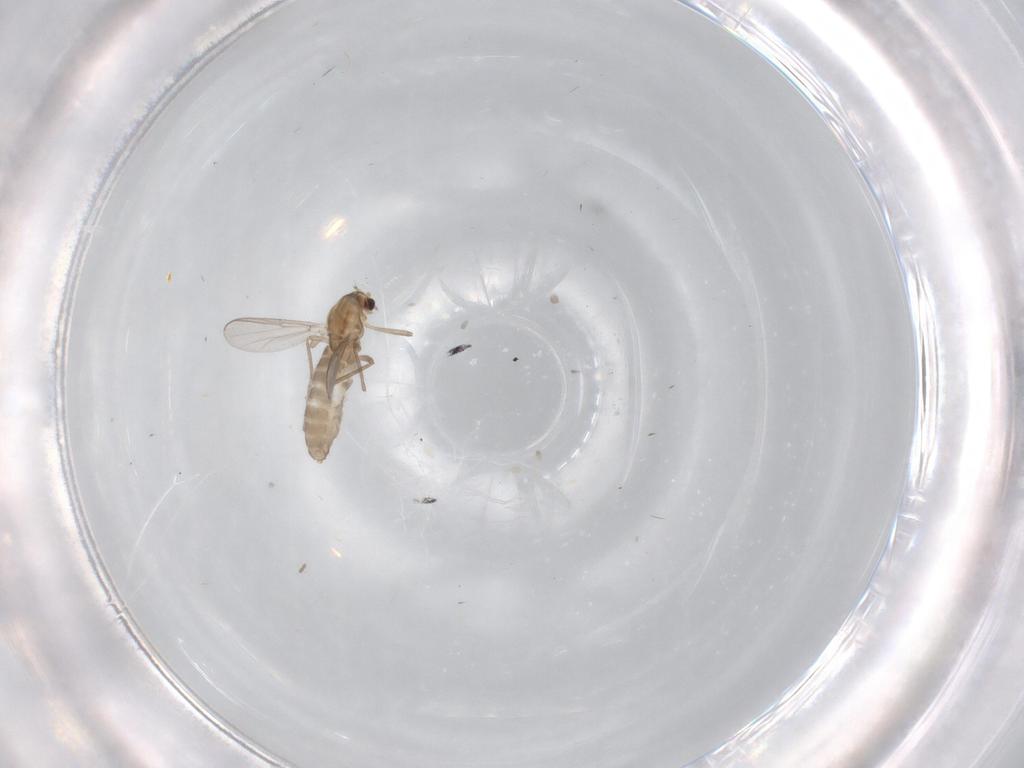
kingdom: Animalia
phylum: Arthropoda
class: Insecta
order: Diptera
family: Chironomidae
